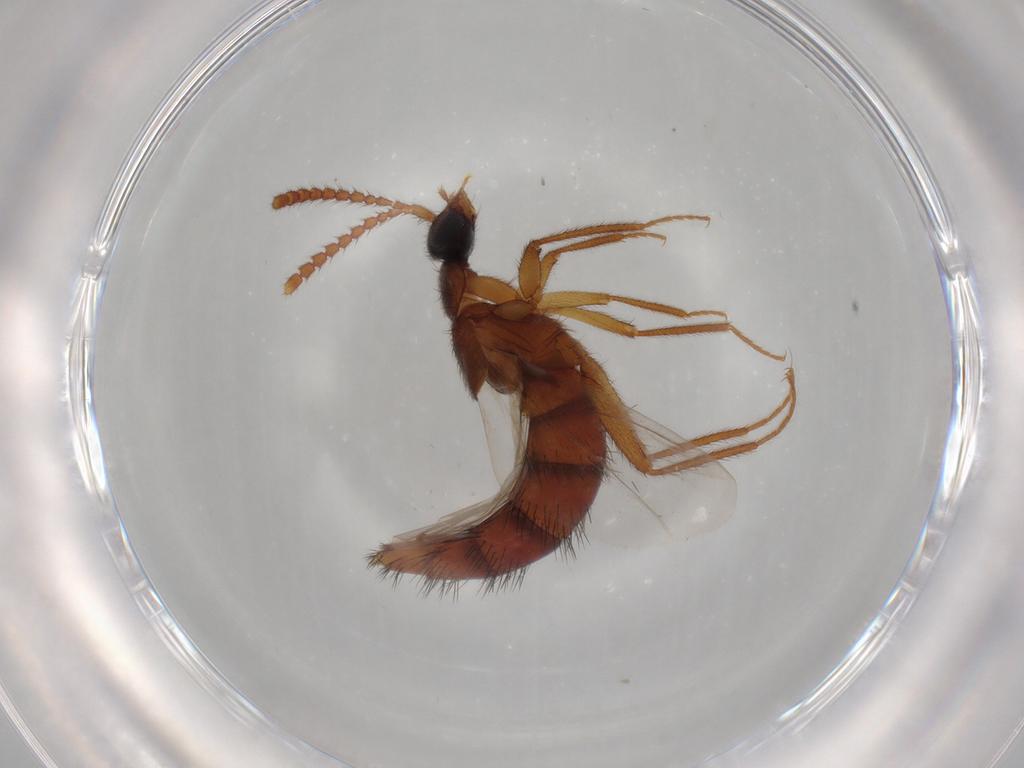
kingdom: Animalia
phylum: Arthropoda
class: Insecta
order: Coleoptera
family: Staphylinidae
